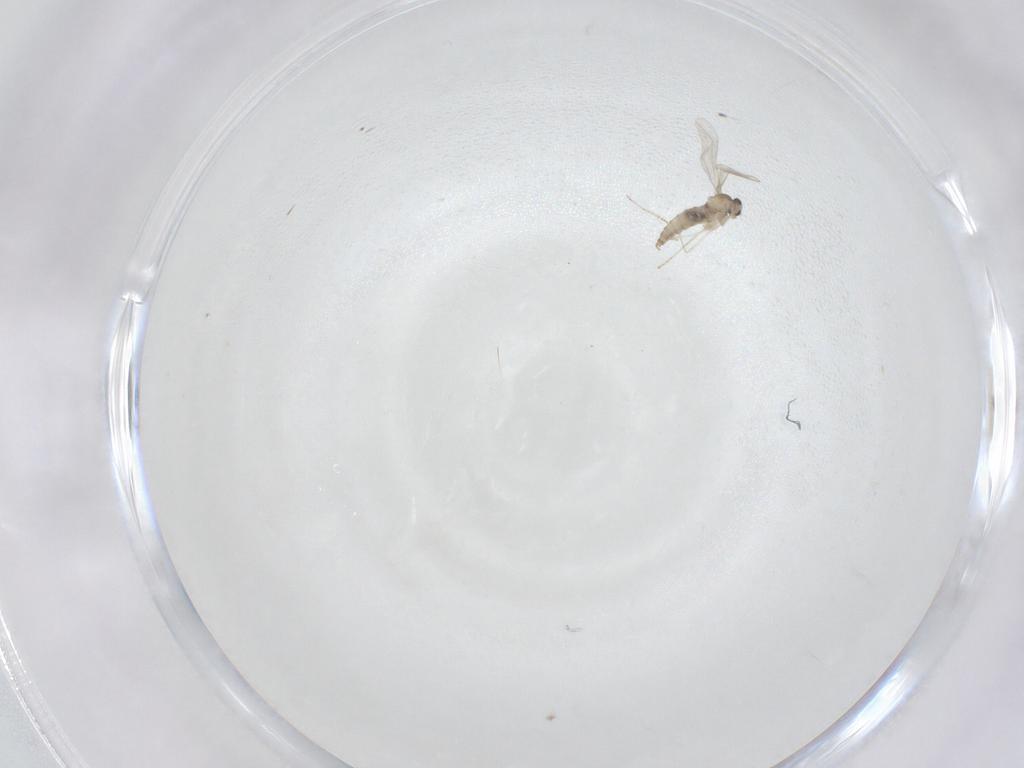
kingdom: Animalia
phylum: Arthropoda
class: Insecta
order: Diptera
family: Cecidomyiidae
